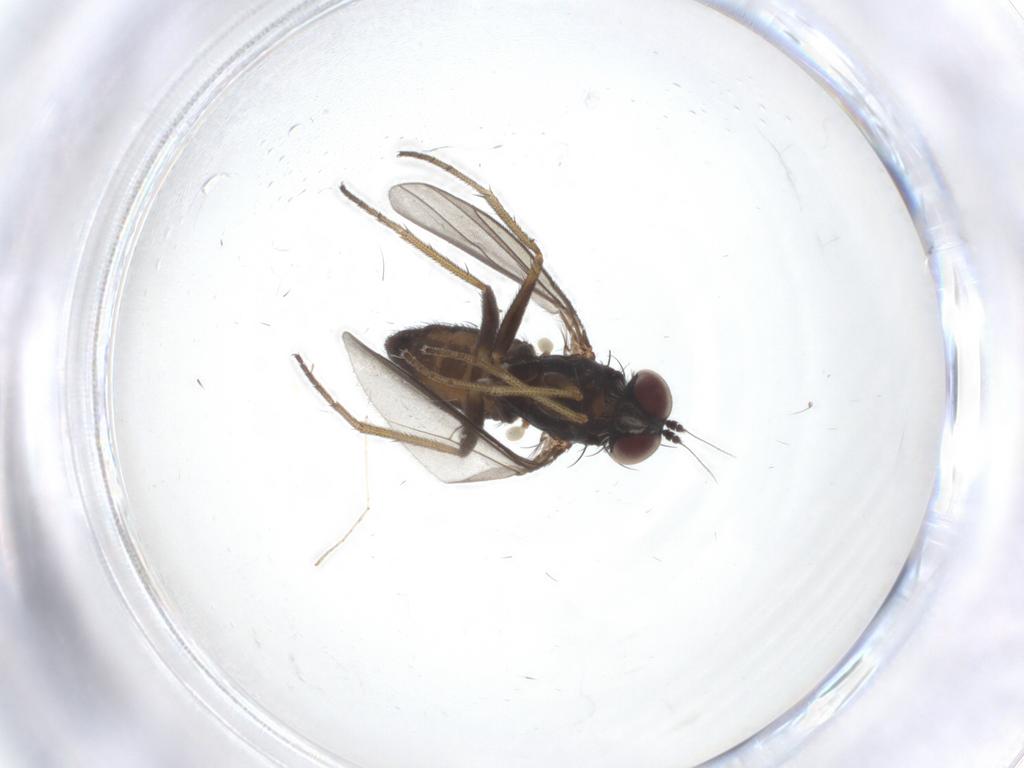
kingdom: Animalia
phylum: Arthropoda
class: Insecta
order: Diptera
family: Dolichopodidae
